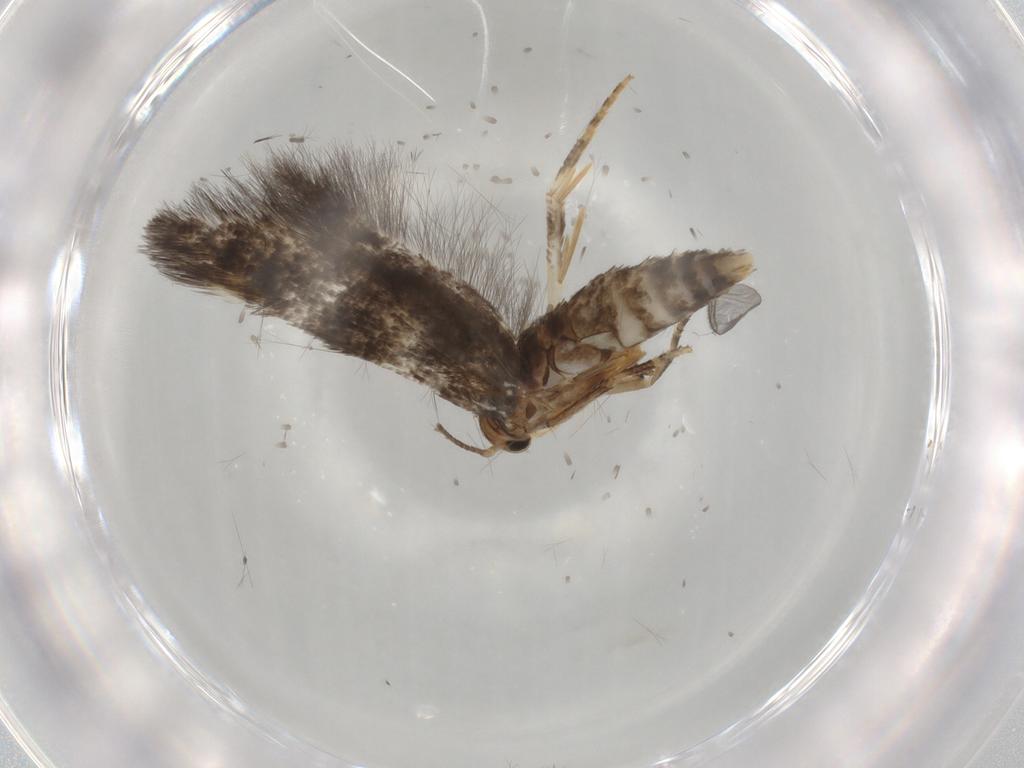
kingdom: Animalia
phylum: Arthropoda
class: Insecta
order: Lepidoptera
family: Elachistidae
